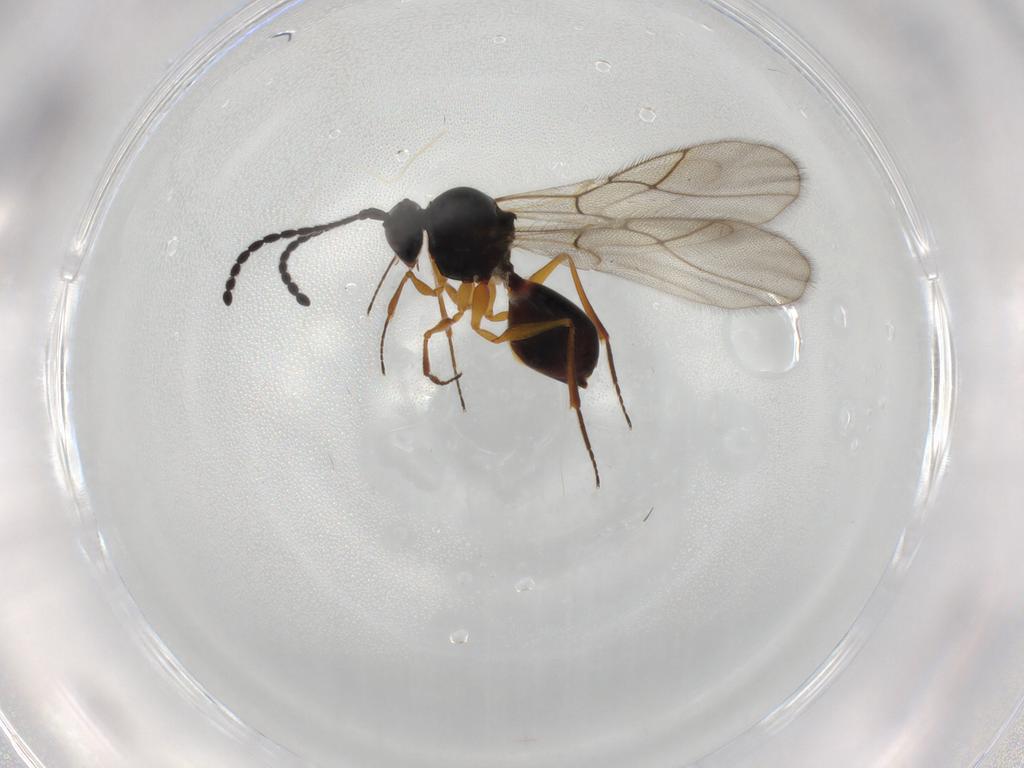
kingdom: Animalia
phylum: Arthropoda
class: Insecta
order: Hymenoptera
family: Figitidae
